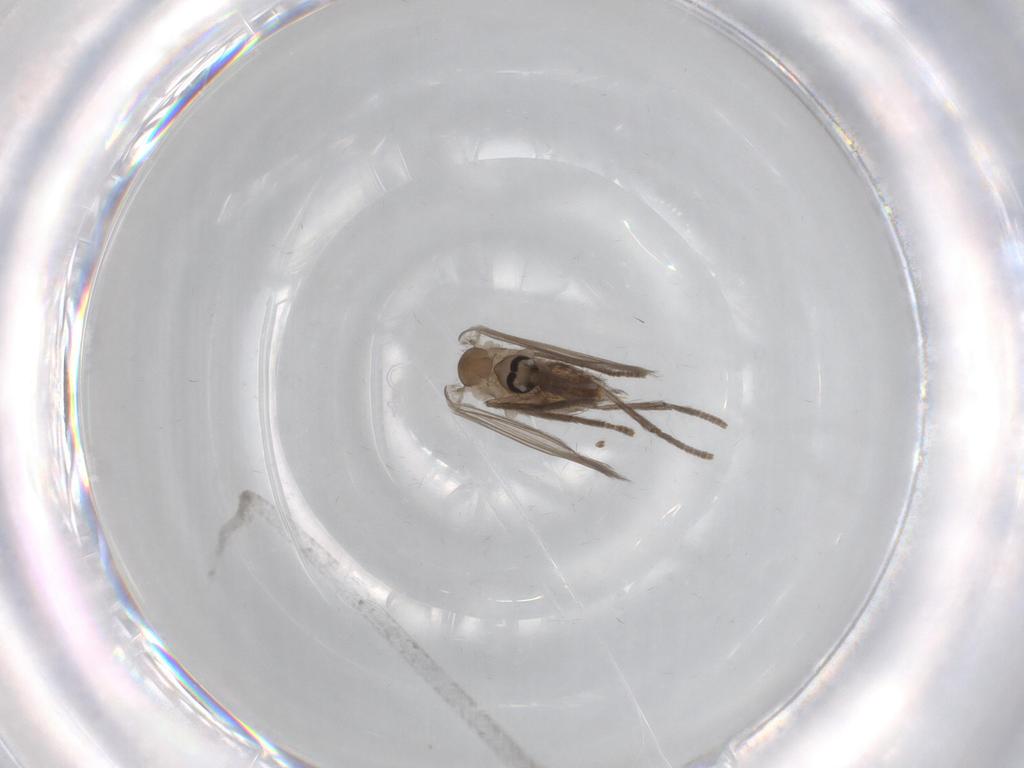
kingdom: Animalia
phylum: Arthropoda
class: Insecta
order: Diptera
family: Psychodidae
